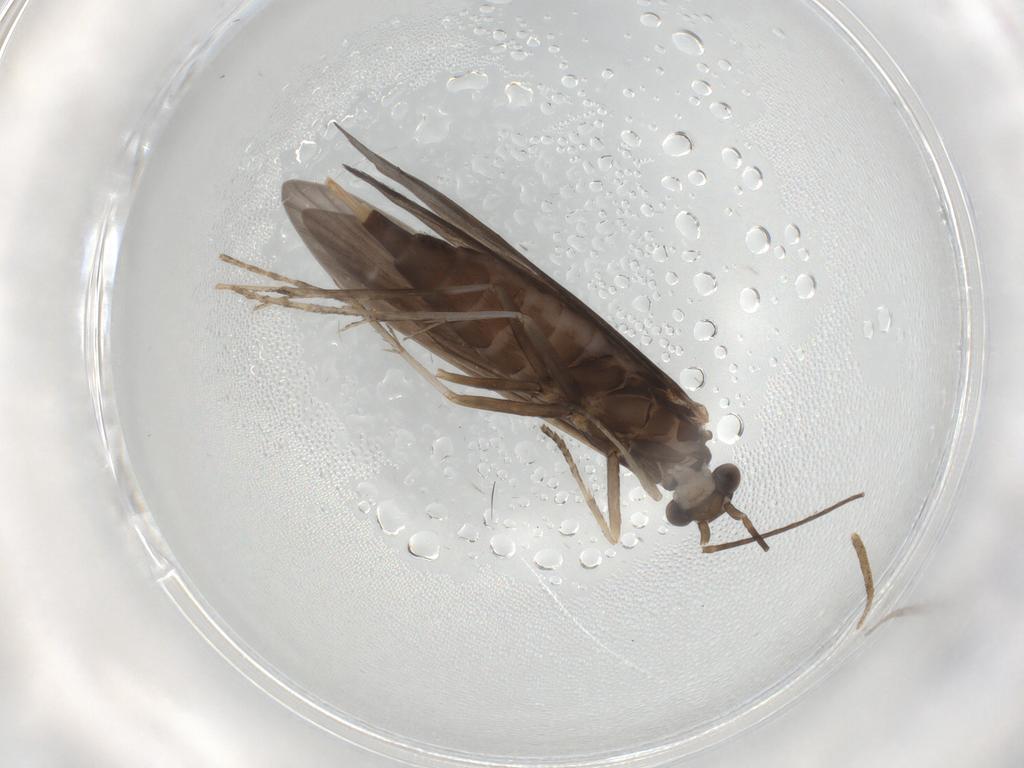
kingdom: Animalia
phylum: Arthropoda
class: Insecta
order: Trichoptera
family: Xiphocentronidae
